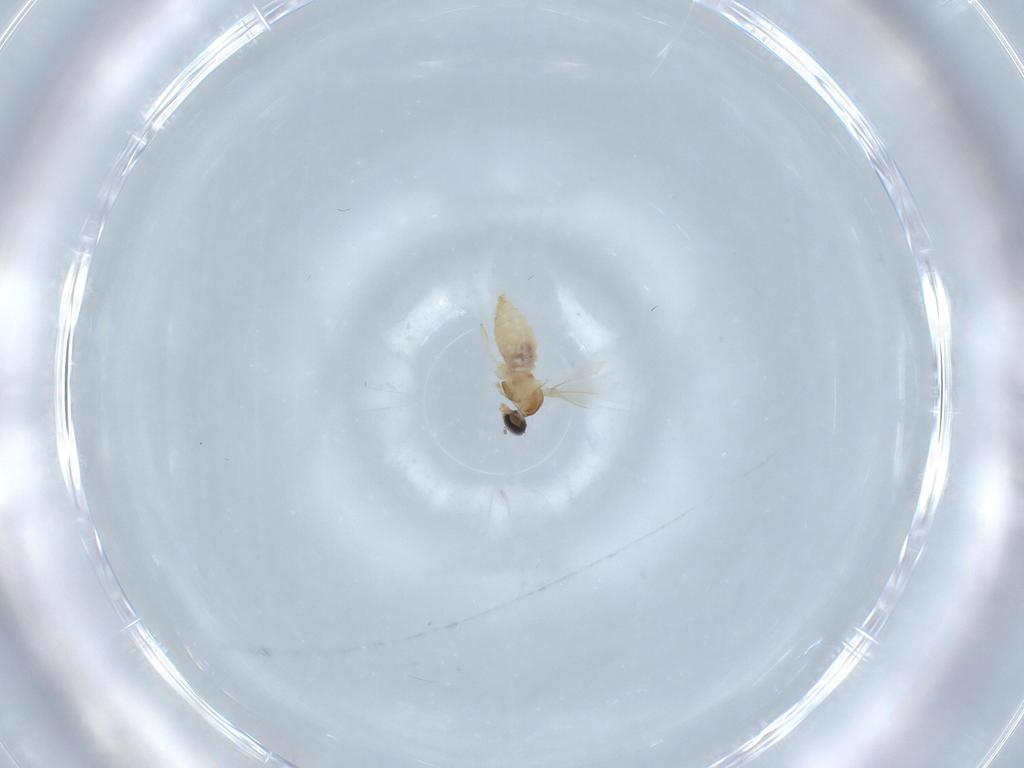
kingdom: Animalia
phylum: Arthropoda
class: Insecta
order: Diptera
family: Cecidomyiidae
